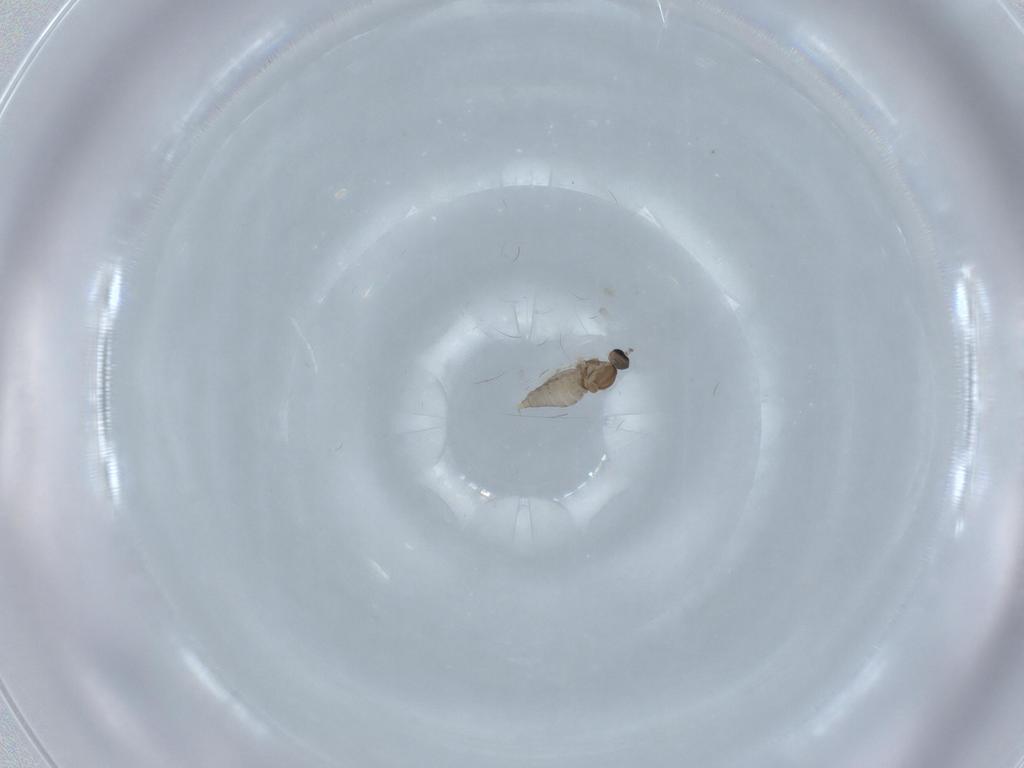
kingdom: Animalia
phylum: Arthropoda
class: Insecta
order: Diptera
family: Cecidomyiidae
